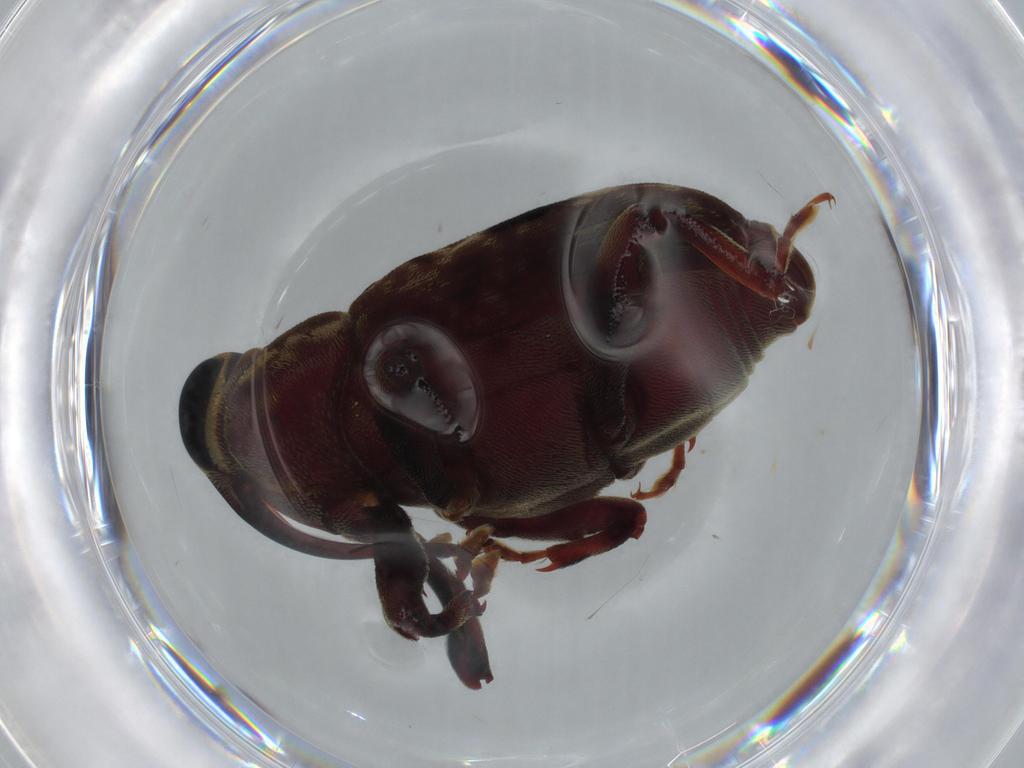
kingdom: Animalia
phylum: Arthropoda
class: Insecta
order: Coleoptera
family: Curculionidae
